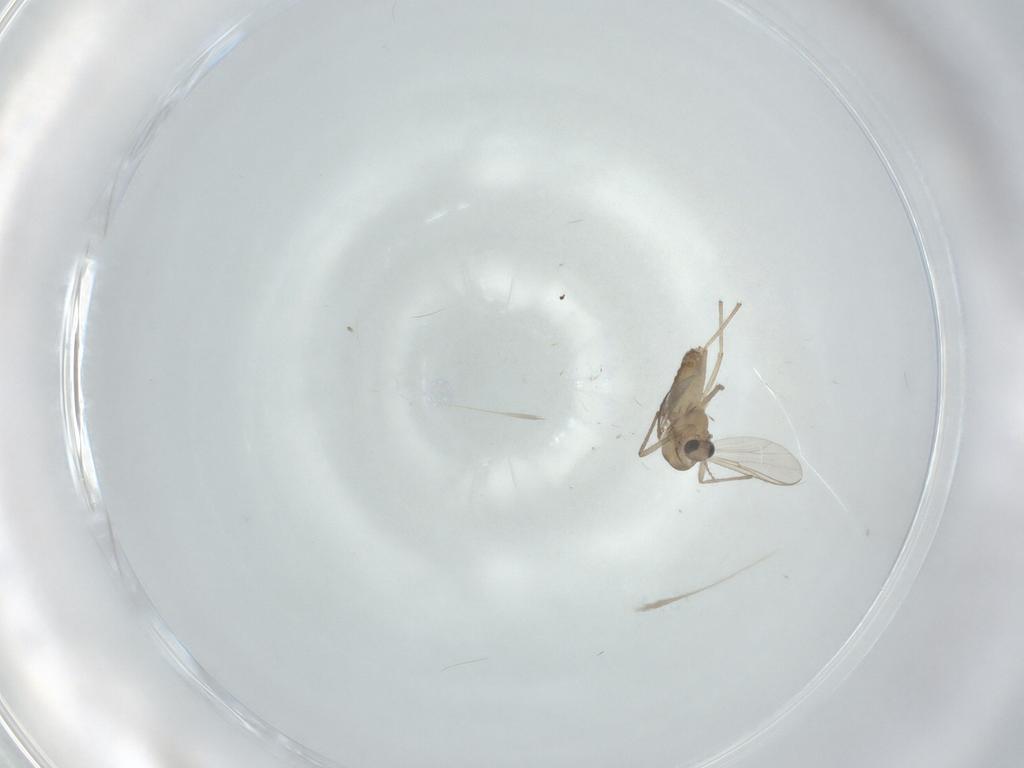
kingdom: Animalia
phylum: Arthropoda
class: Insecta
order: Diptera
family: Chironomidae
